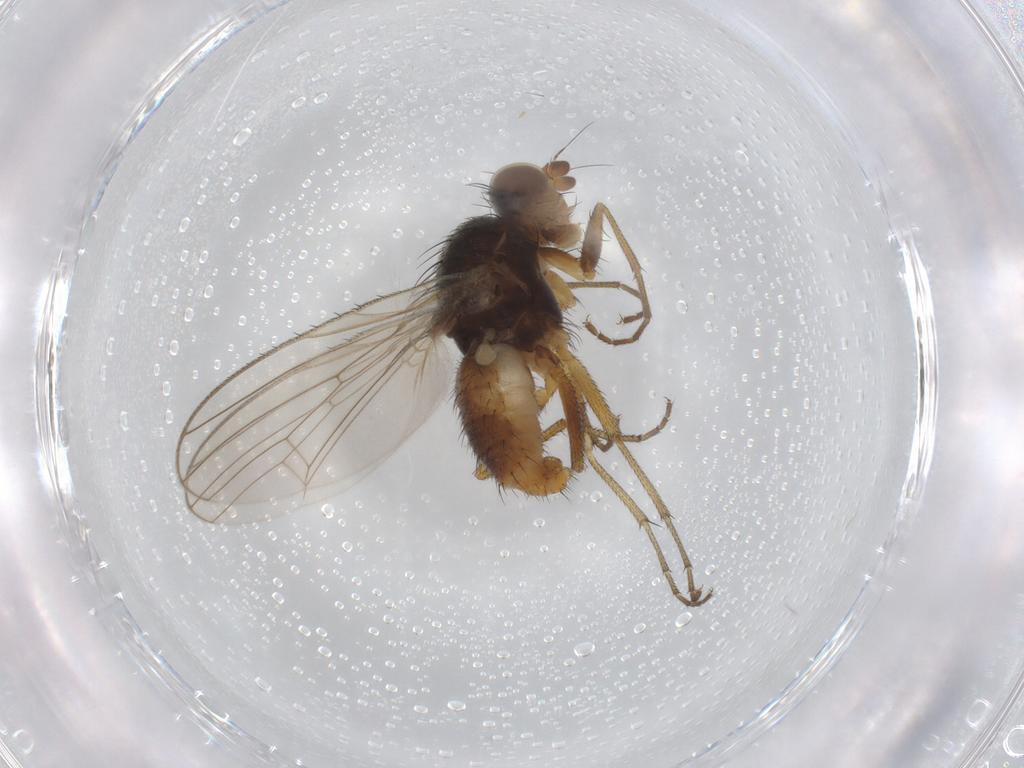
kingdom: Animalia
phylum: Arthropoda
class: Insecta
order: Diptera
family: Heleomyzidae
